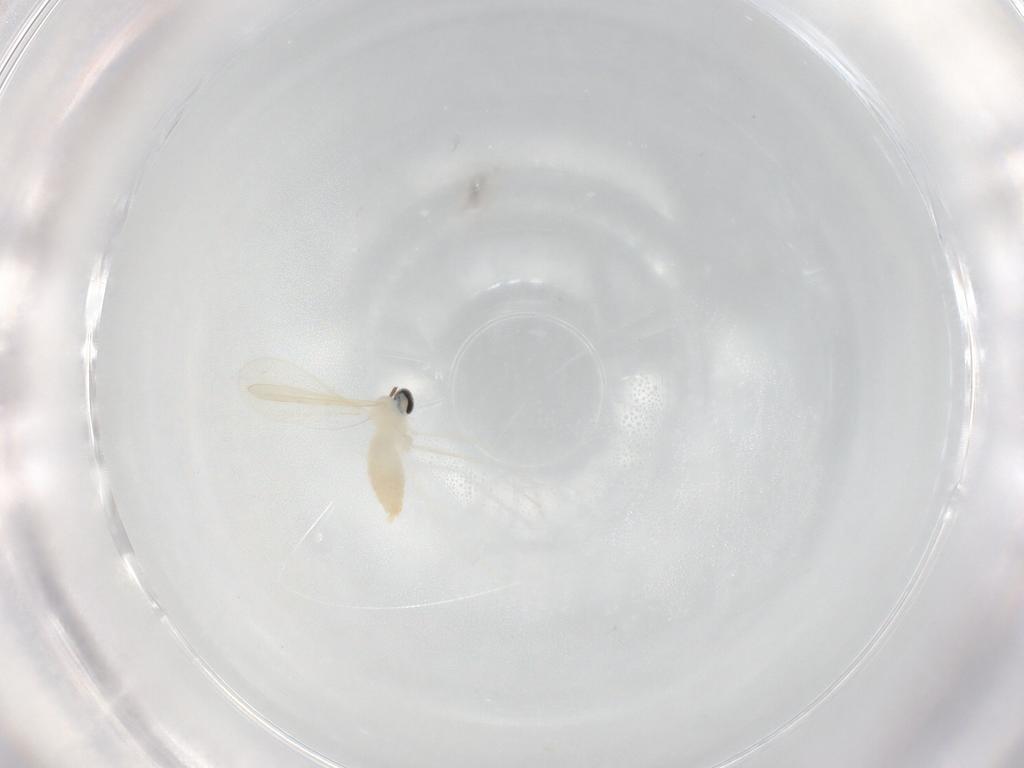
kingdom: Animalia
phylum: Arthropoda
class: Insecta
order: Diptera
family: Cecidomyiidae
